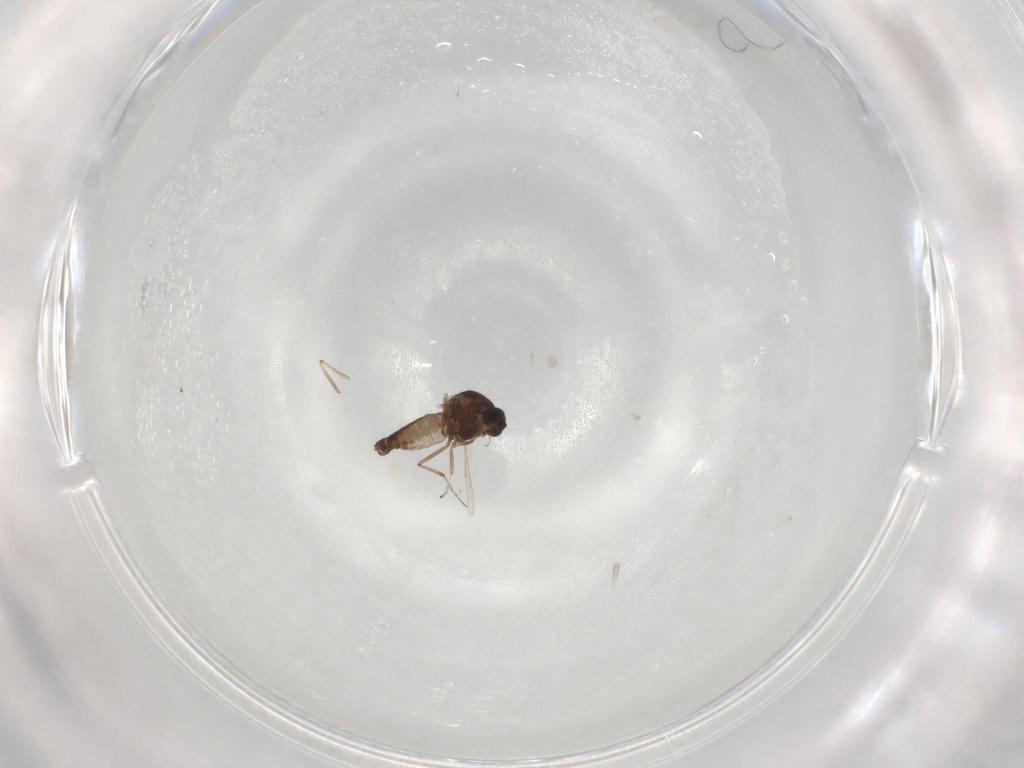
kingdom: Animalia
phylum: Arthropoda
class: Insecta
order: Diptera
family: Ceratopogonidae
